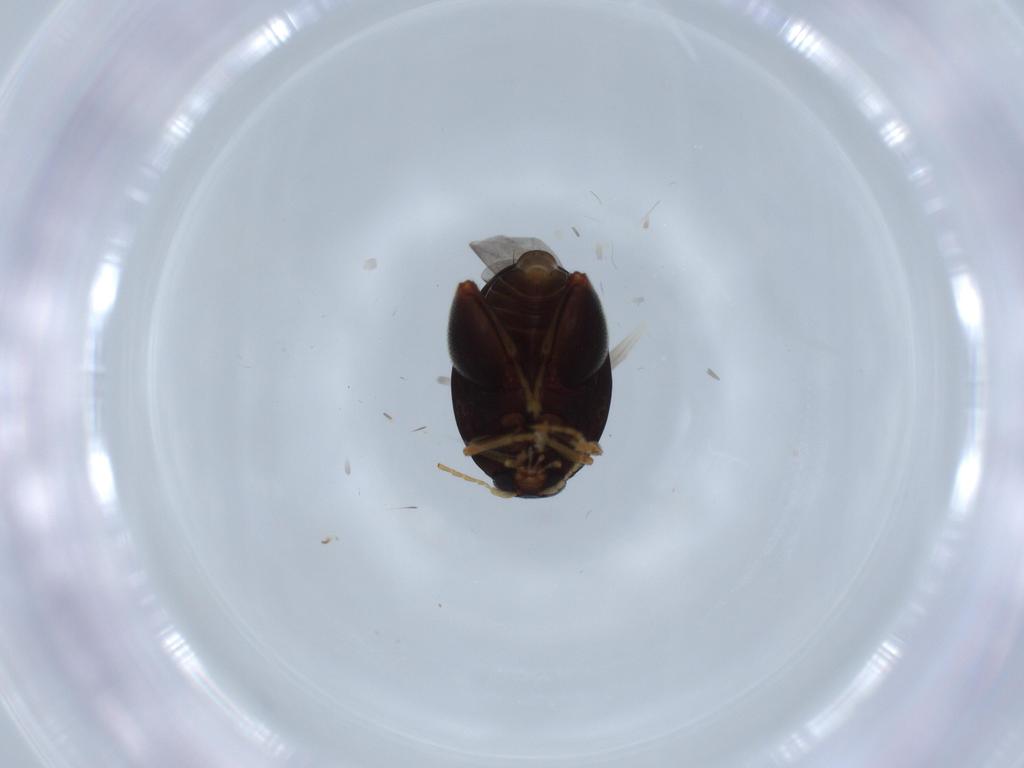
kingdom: Animalia
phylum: Arthropoda
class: Insecta
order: Coleoptera
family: Chrysomelidae
